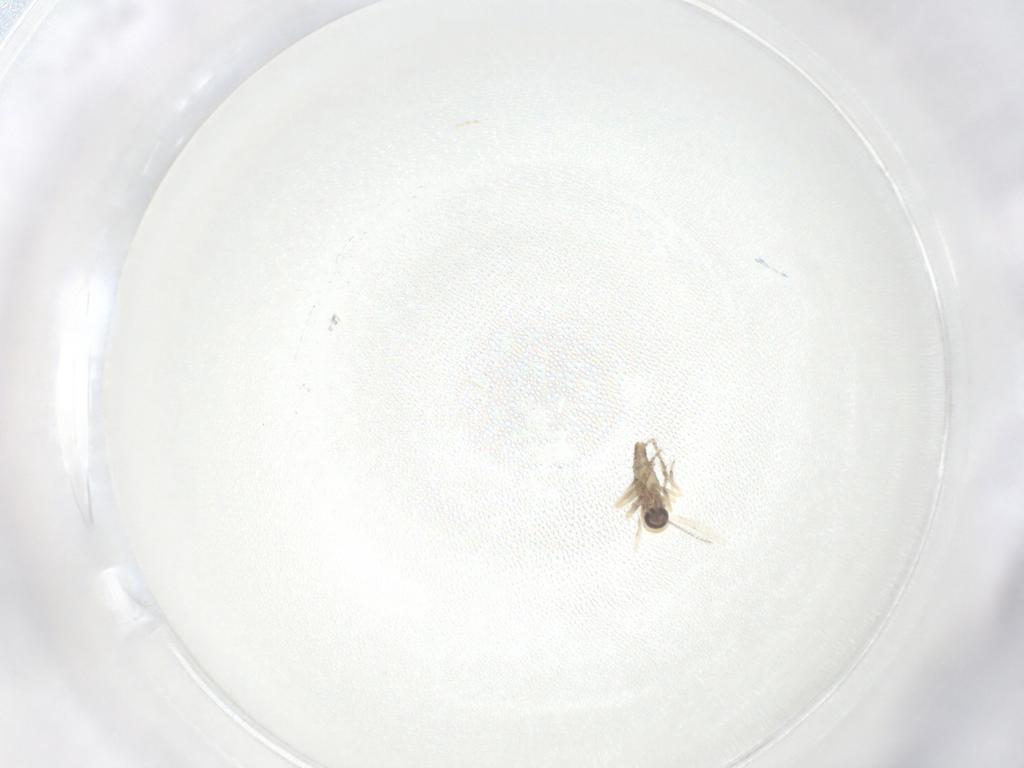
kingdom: Animalia
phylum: Arthropoda
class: Insecta
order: Diptera
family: Ceratopogonidae
